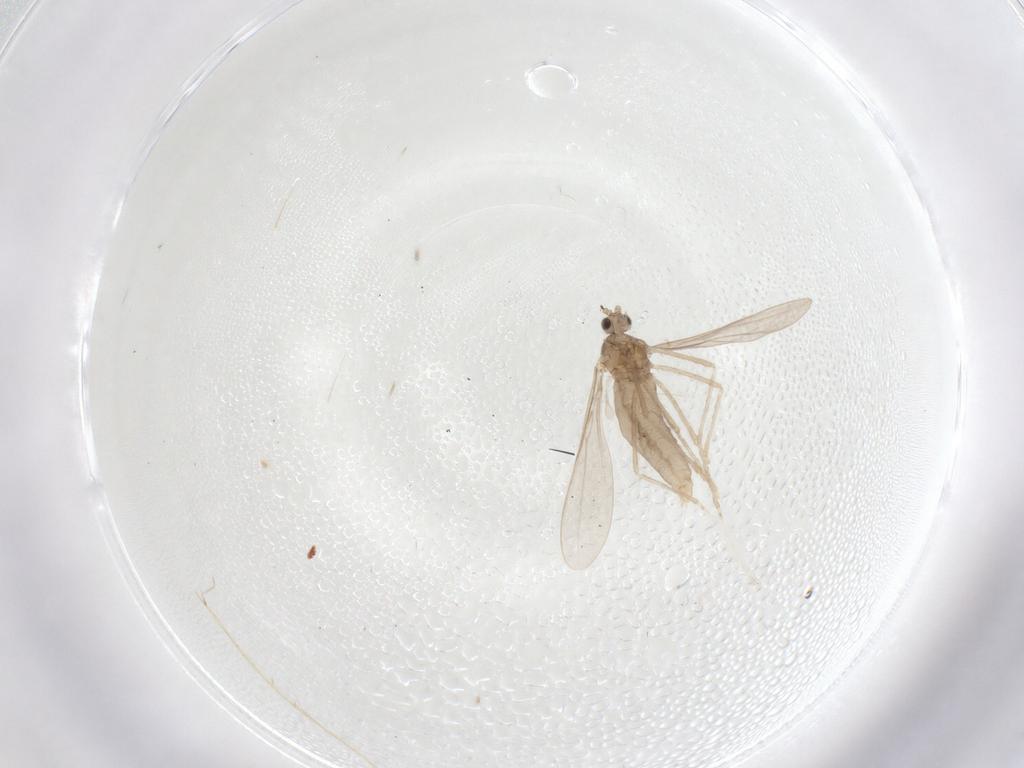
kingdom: Animalia
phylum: Arthropoda
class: Insecta
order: Diptera
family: Cecidomyiidae
